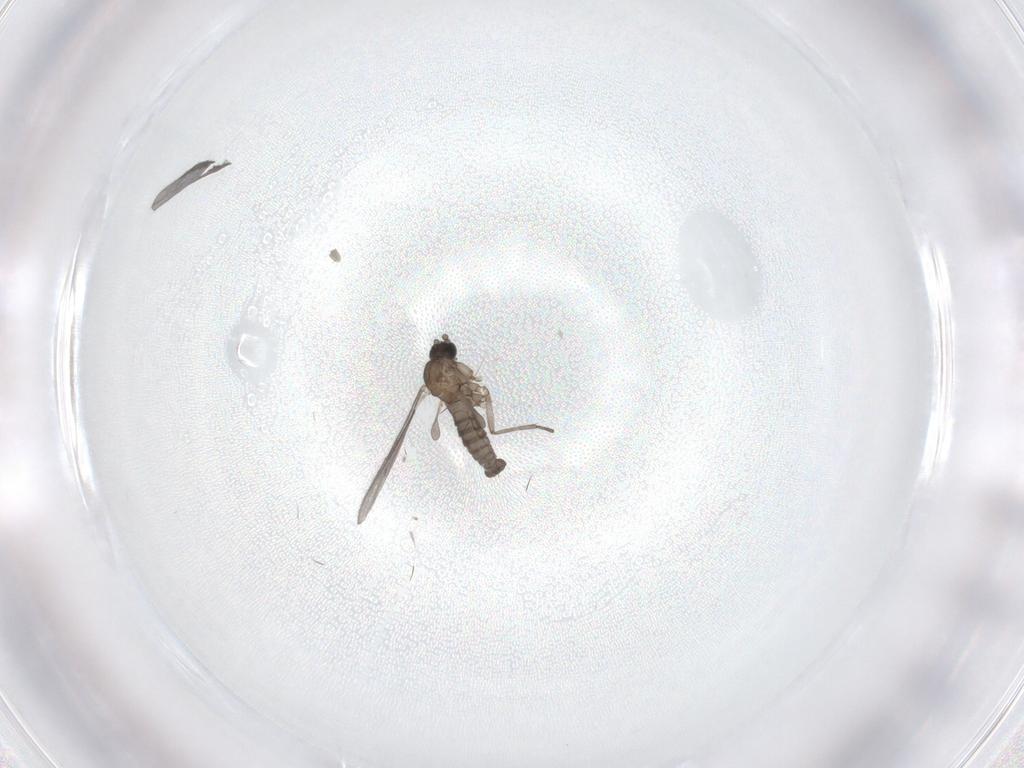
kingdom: Animalia
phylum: Arthropoda
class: Insecta
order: Diptera
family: Sciaridae
